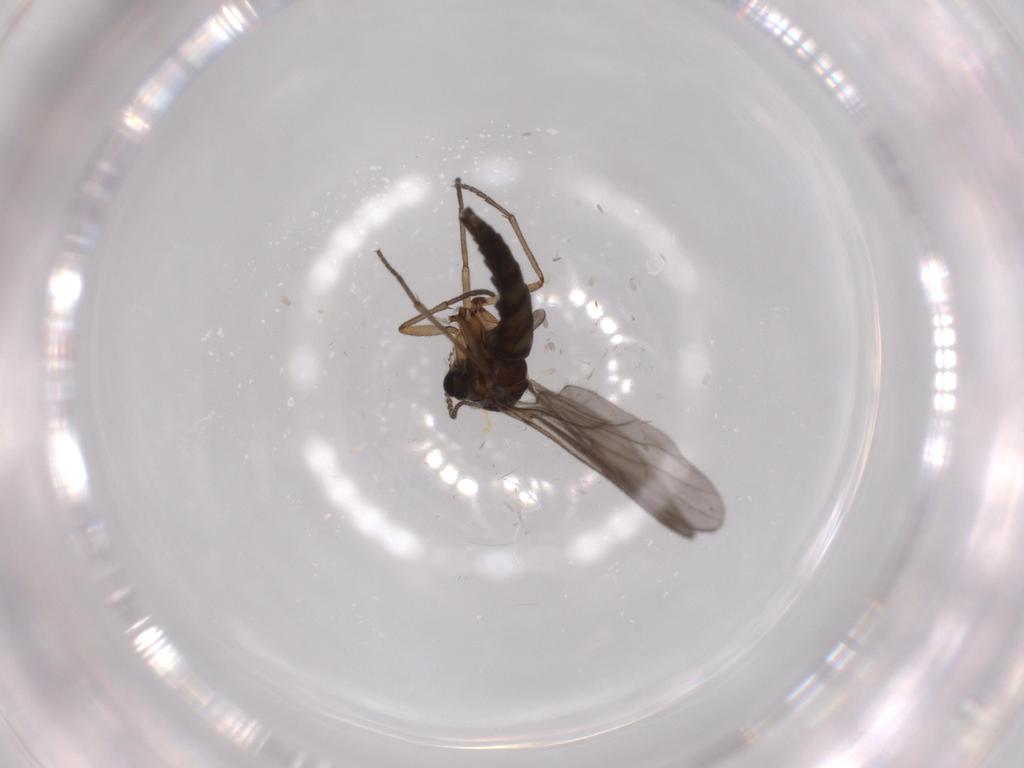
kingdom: Animalia
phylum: Arthropoda
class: Insecta
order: Diptera
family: Sciaridae
